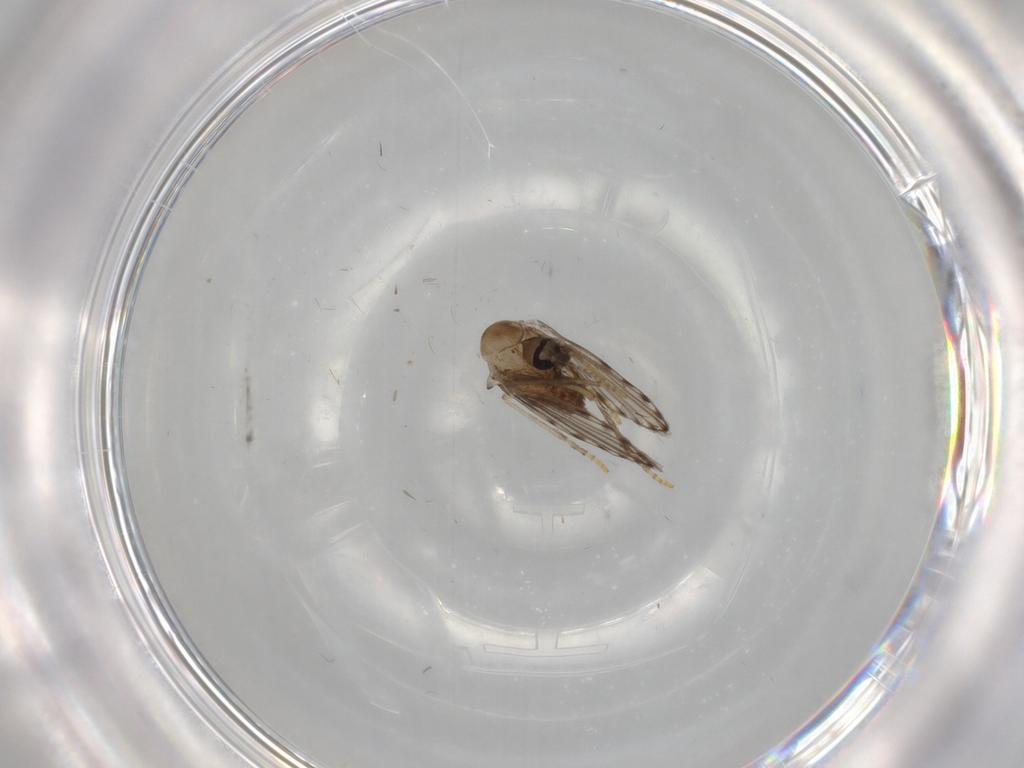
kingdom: Animalia
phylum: Arthropoda
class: Insecta
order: Diptera
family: Psychodidae
